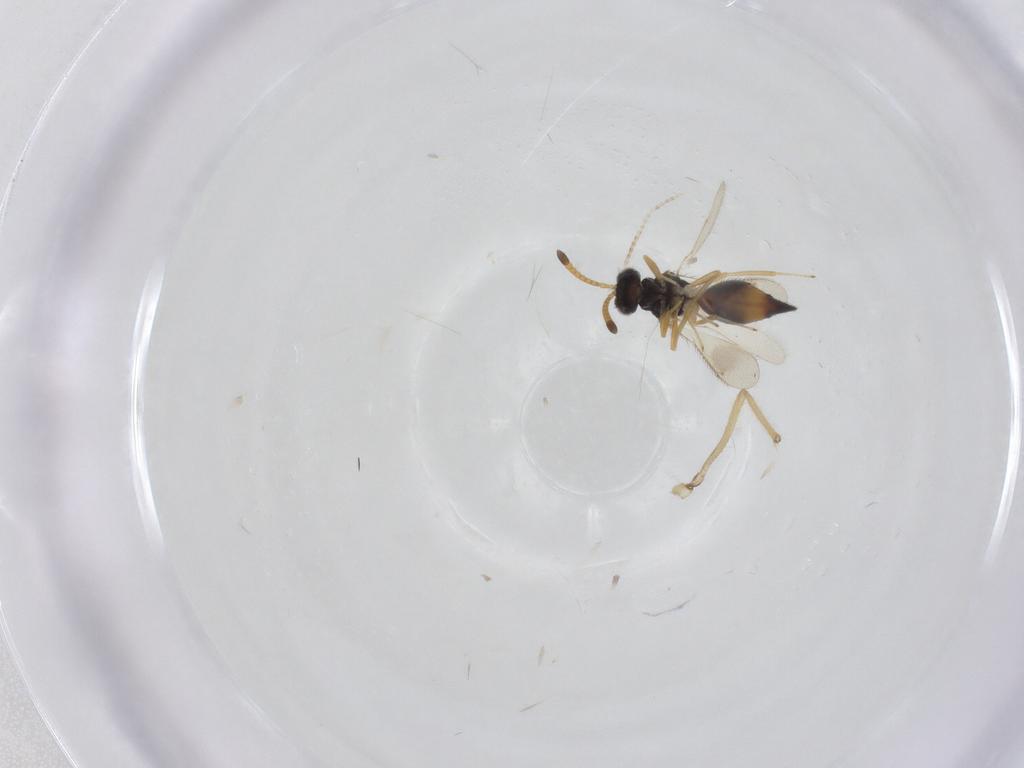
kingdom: Animalia
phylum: Arthropoda
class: Insecta
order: Diptera
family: Chironomidae
